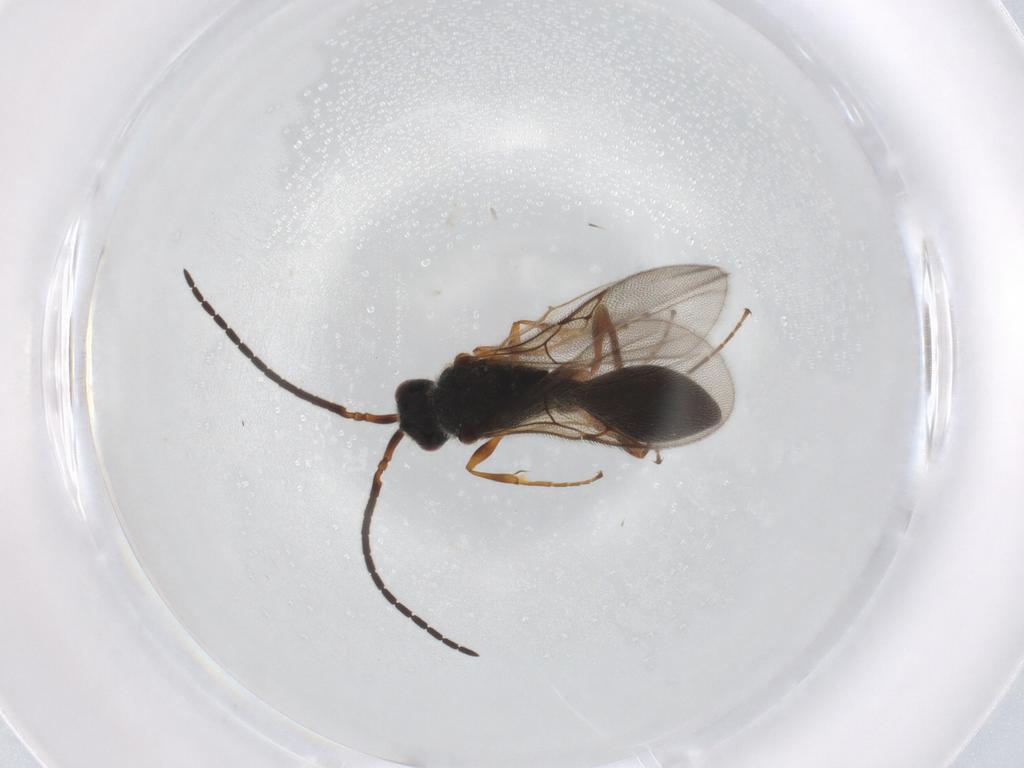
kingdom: Animalia
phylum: Arthropoda
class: Insecta
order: Hymenoptera
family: Diapriidae
